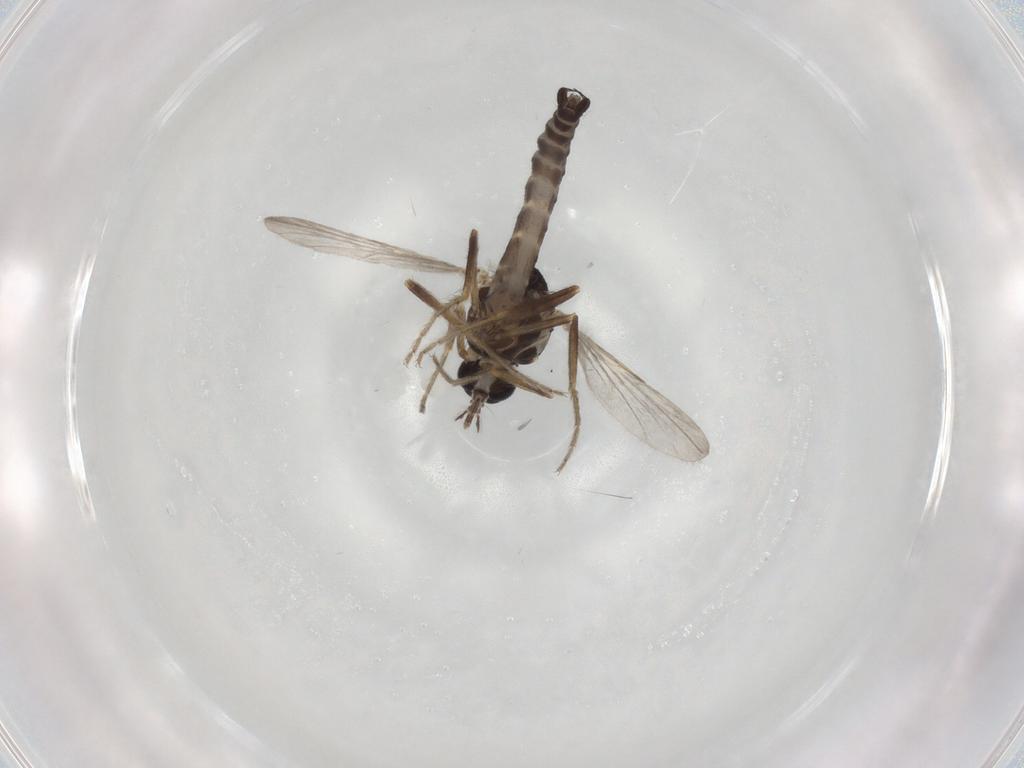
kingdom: Animalia
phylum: Arthropoda
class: Insecta
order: Diptera
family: Ceratopogonidae
